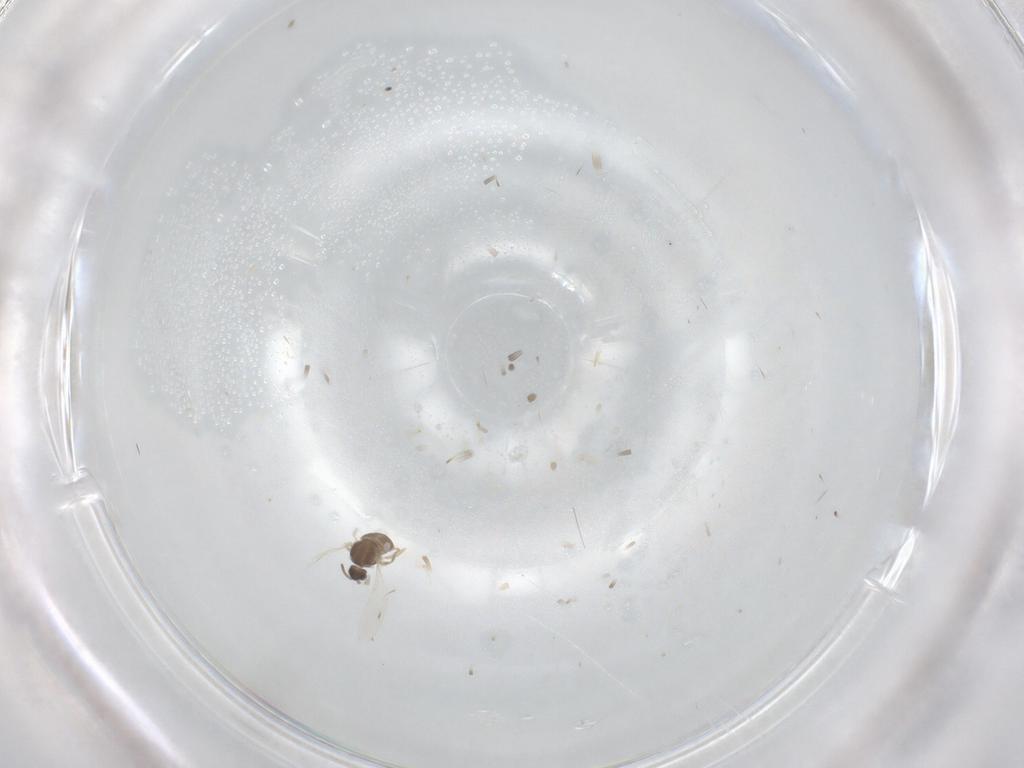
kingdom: Animalia
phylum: Arthropoda
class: Insecta
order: Diptera
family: Cecidomyiidae
